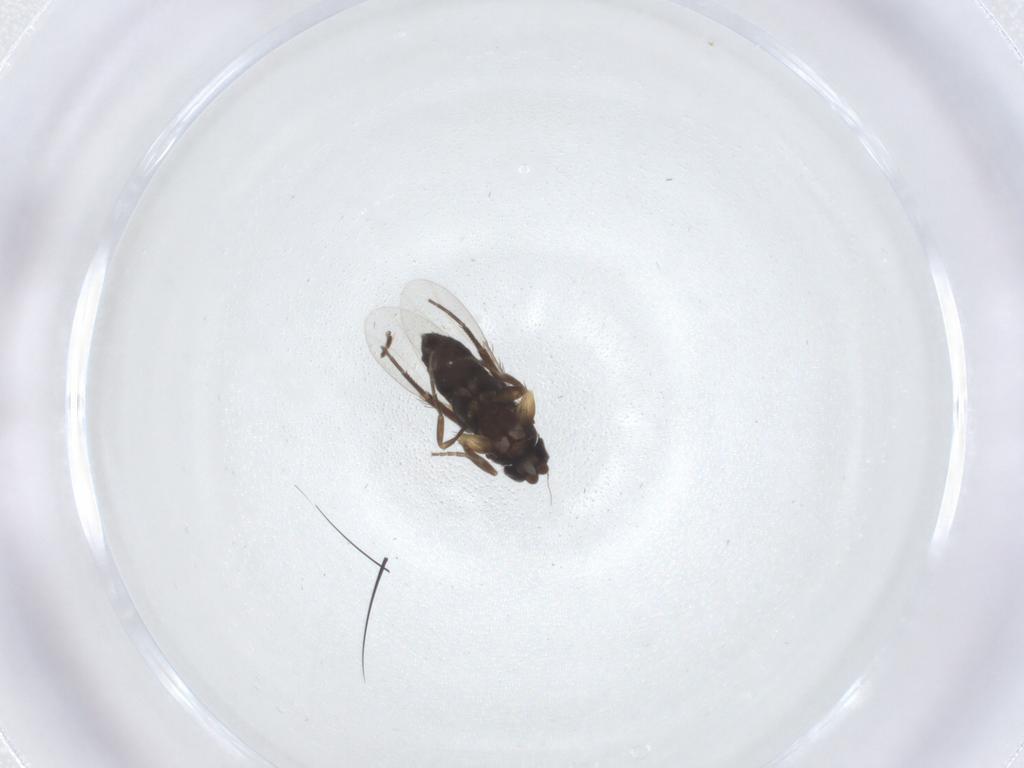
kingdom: Animalia
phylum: Arthropoda
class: Insecta
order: Diptera
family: Phoridae
